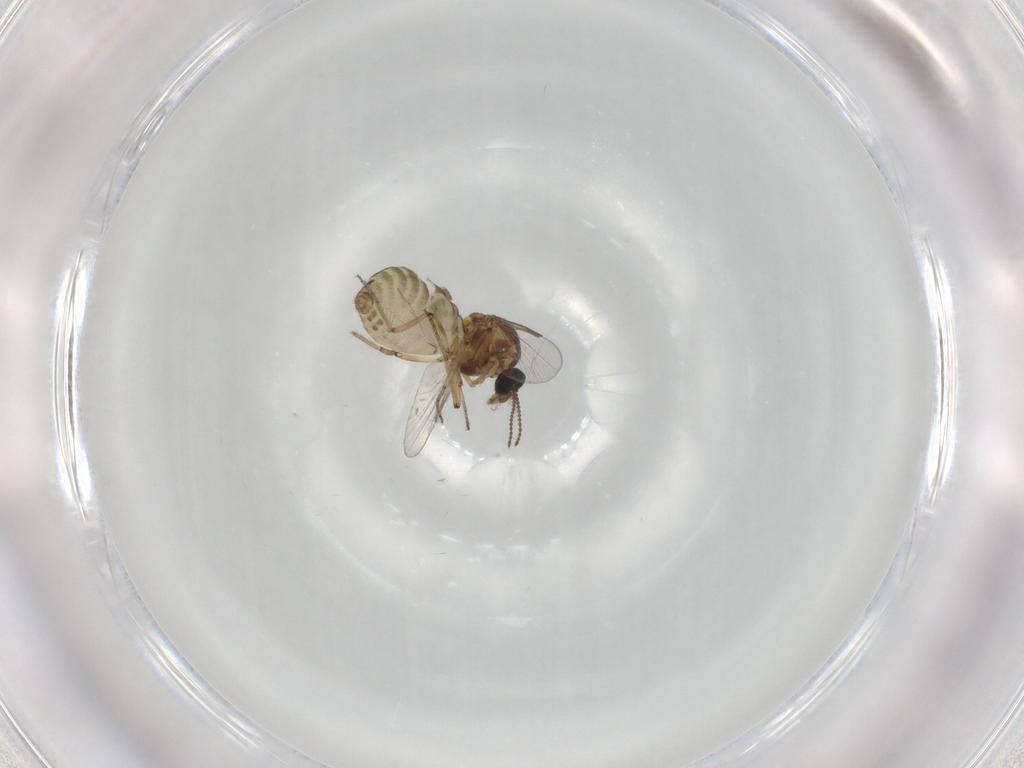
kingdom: Animalia
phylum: Arthropoda
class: Insecta
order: Diptera
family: Ceratopogonidae
